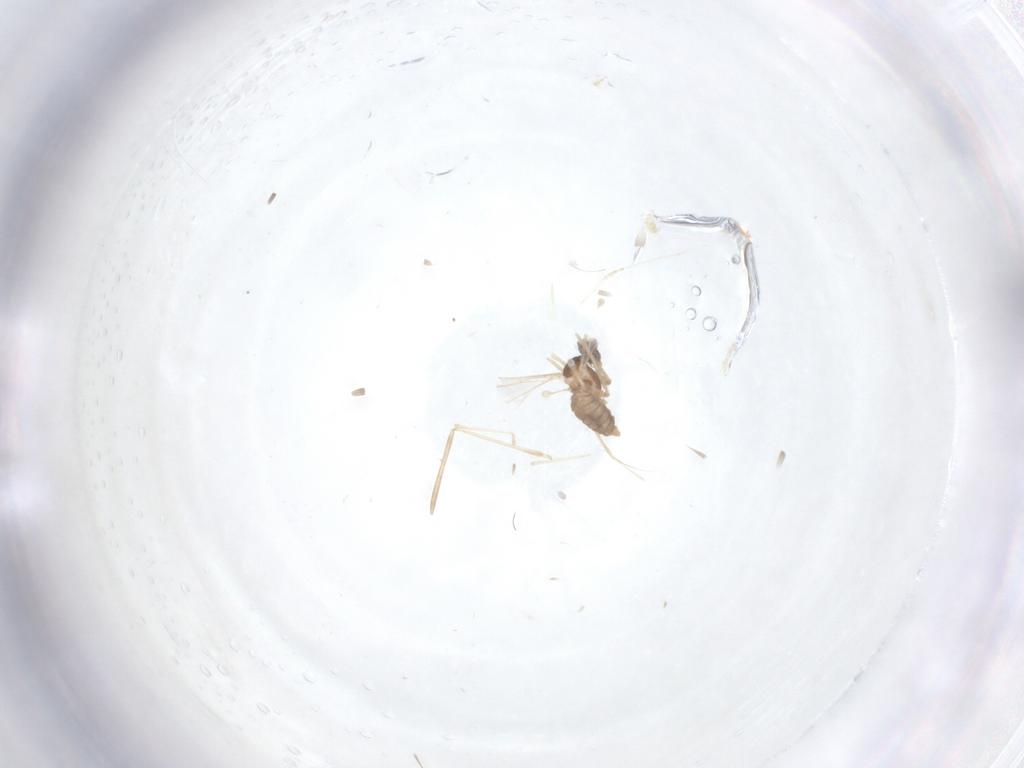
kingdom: Animalia
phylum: Arthropoda
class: Insecta
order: Diptera
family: Cecidomyiidae
